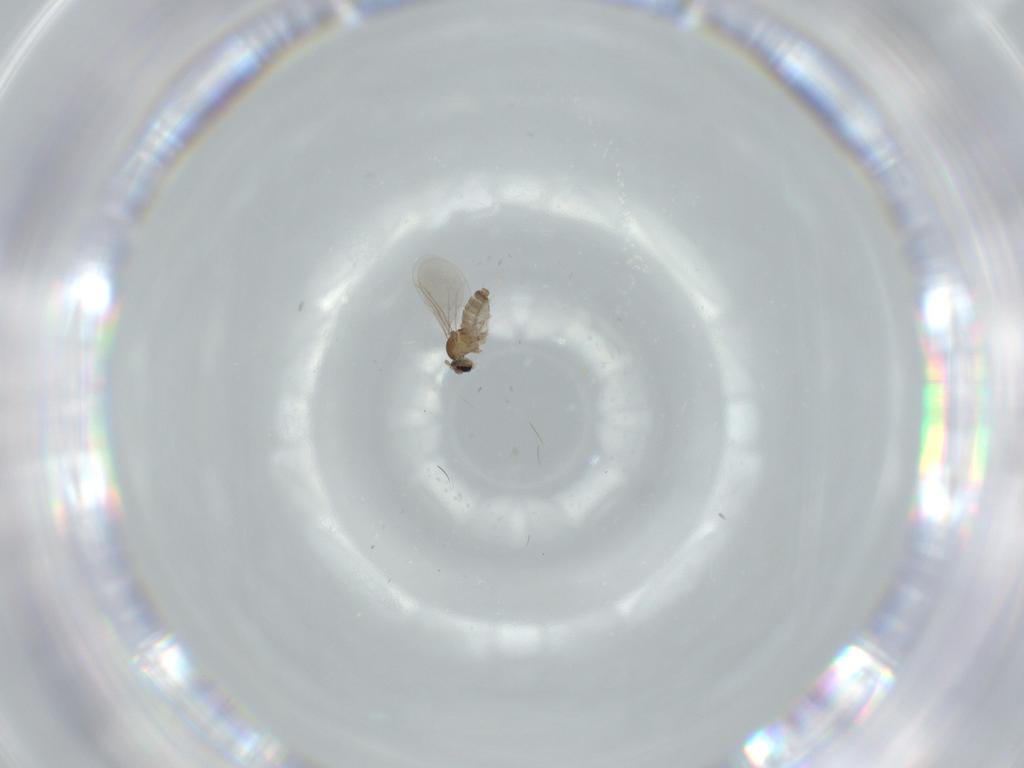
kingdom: Animalia
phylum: Arthropoda
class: Insecta
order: Diptera
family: Cecidomyiidae
